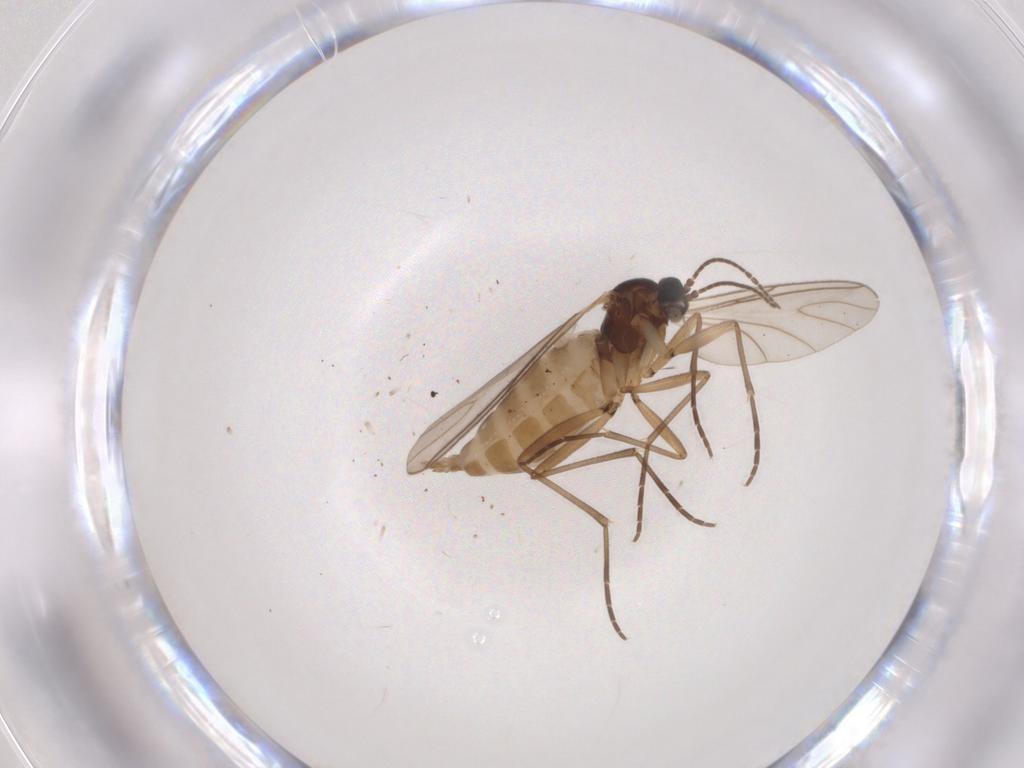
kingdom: Animalia
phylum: Arthropoda
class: Insecta
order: Diptera
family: Sciaridae
